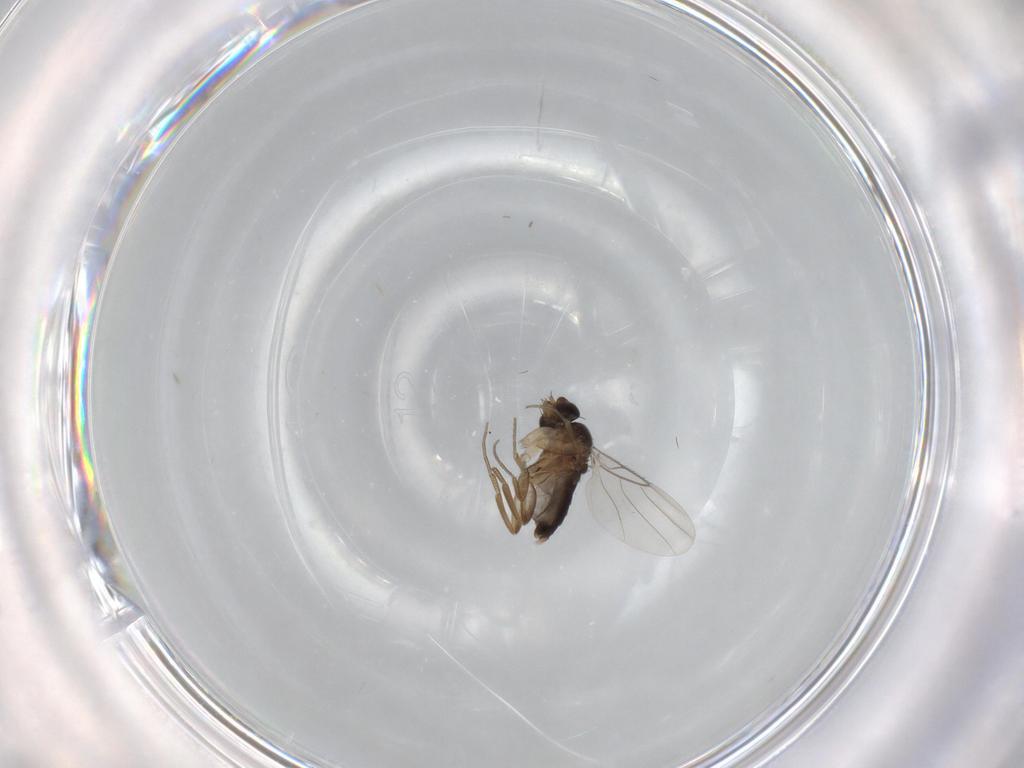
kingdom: Animalia
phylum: Arthropoda
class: Insecta
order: Diptera
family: Phoridae
